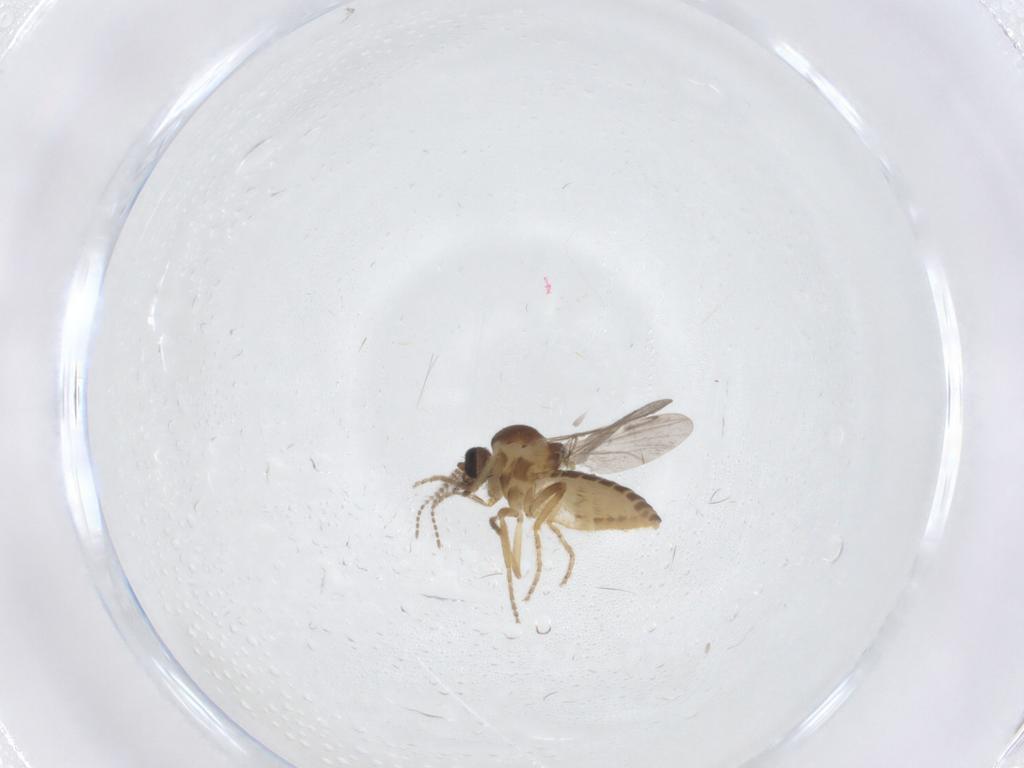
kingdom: Animalia
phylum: Arthropoda
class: Insecta
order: Diptera
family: Ceratopogonidae
